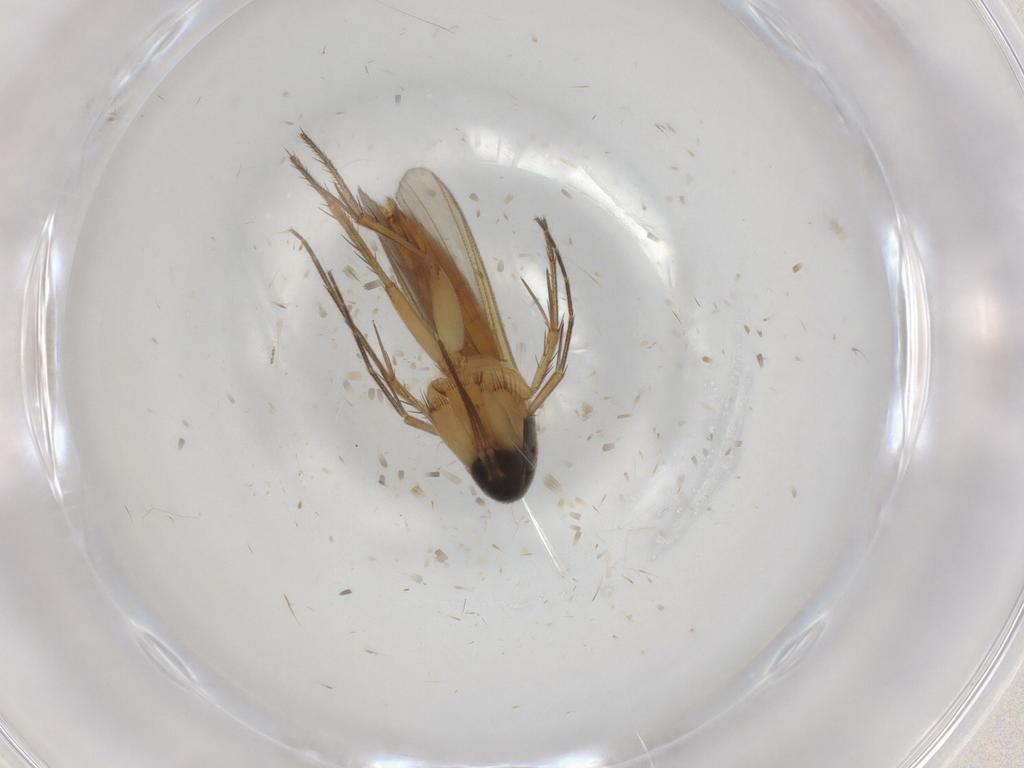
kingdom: Animalia
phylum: Arthropoda
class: Insecta
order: Diptera
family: Mycetophilidae
